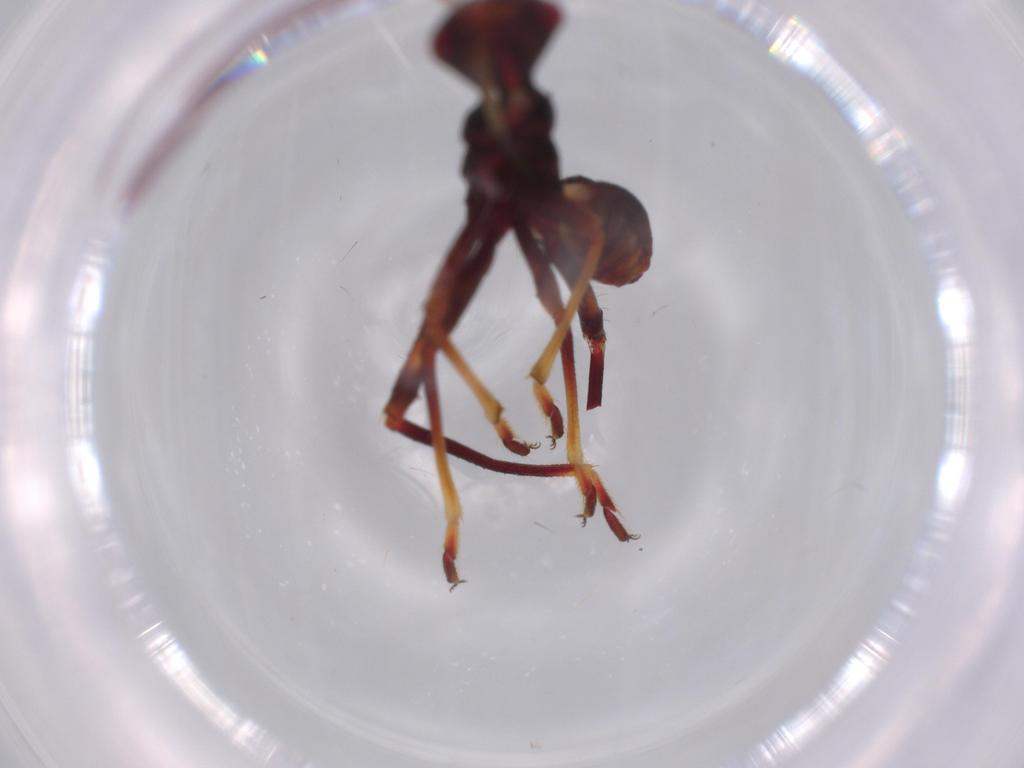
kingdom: Animalia
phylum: Arthropoda
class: Insecta
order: Hemiptera
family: Alydidae
